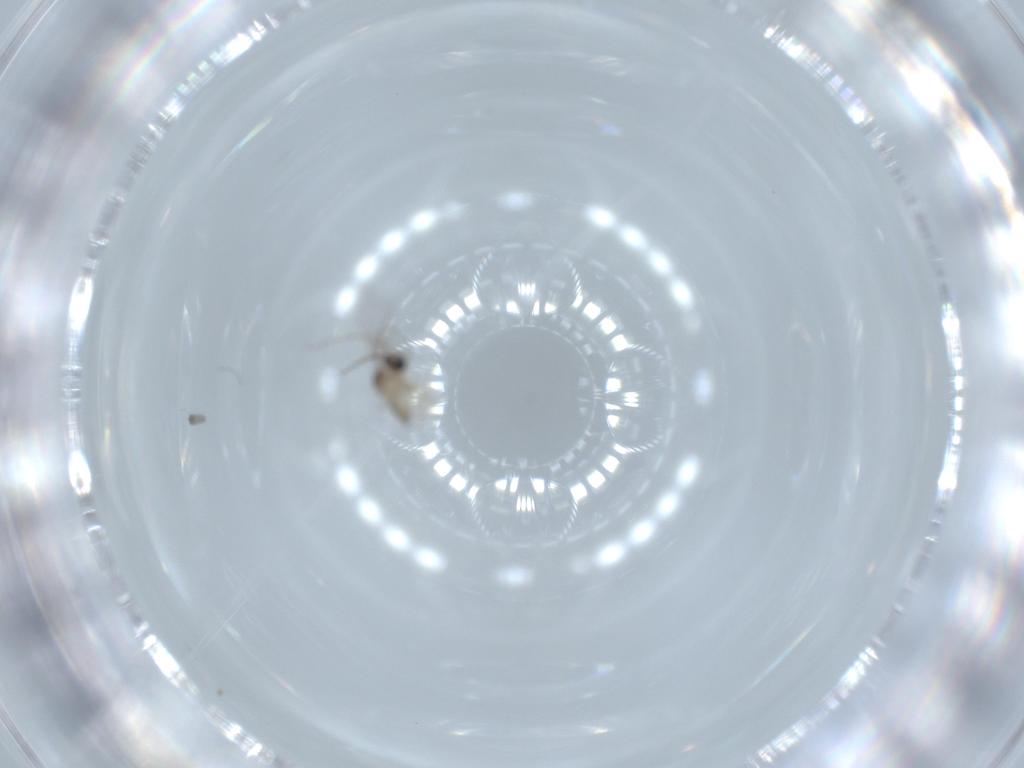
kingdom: Animalia
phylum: Arthropoda
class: Insecta
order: Diptera
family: Cecidomyiidae
